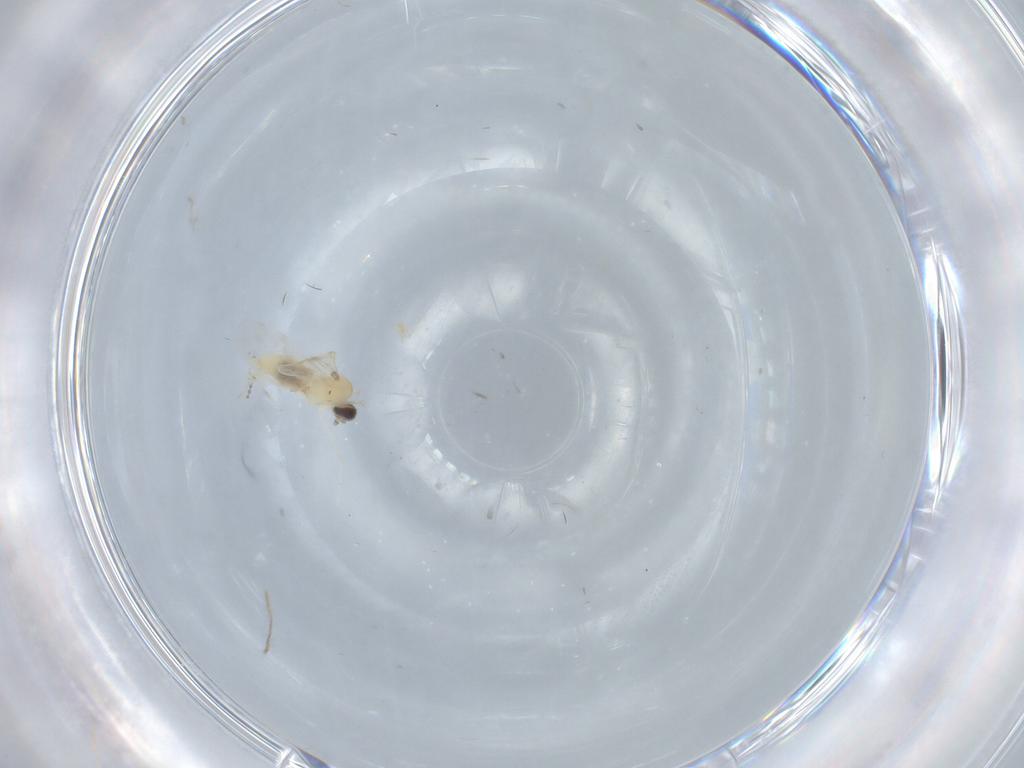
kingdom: Animalia
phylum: Arthropoda
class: Insecta
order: Diptera
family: Cecidomyiidae
